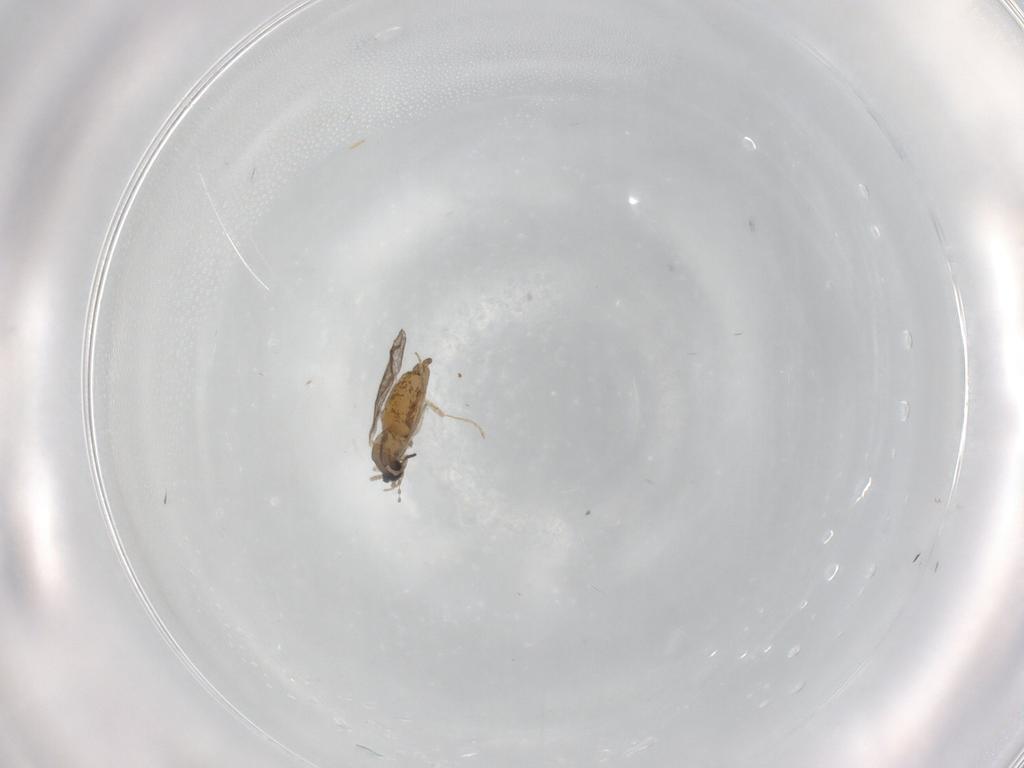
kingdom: Animalia
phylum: Arthropoda
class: Insecta
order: Diptera
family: Cecidomyiidae
